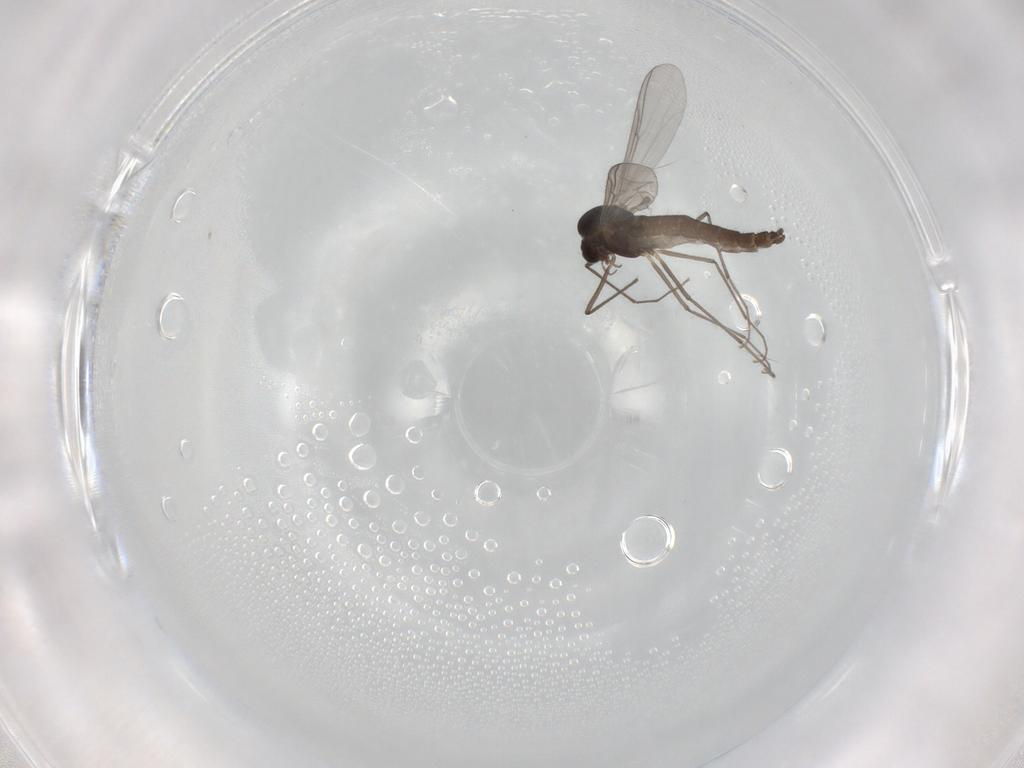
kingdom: Animalia
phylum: Arthropoda
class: Insecta
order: Diptera
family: Chironomidae
